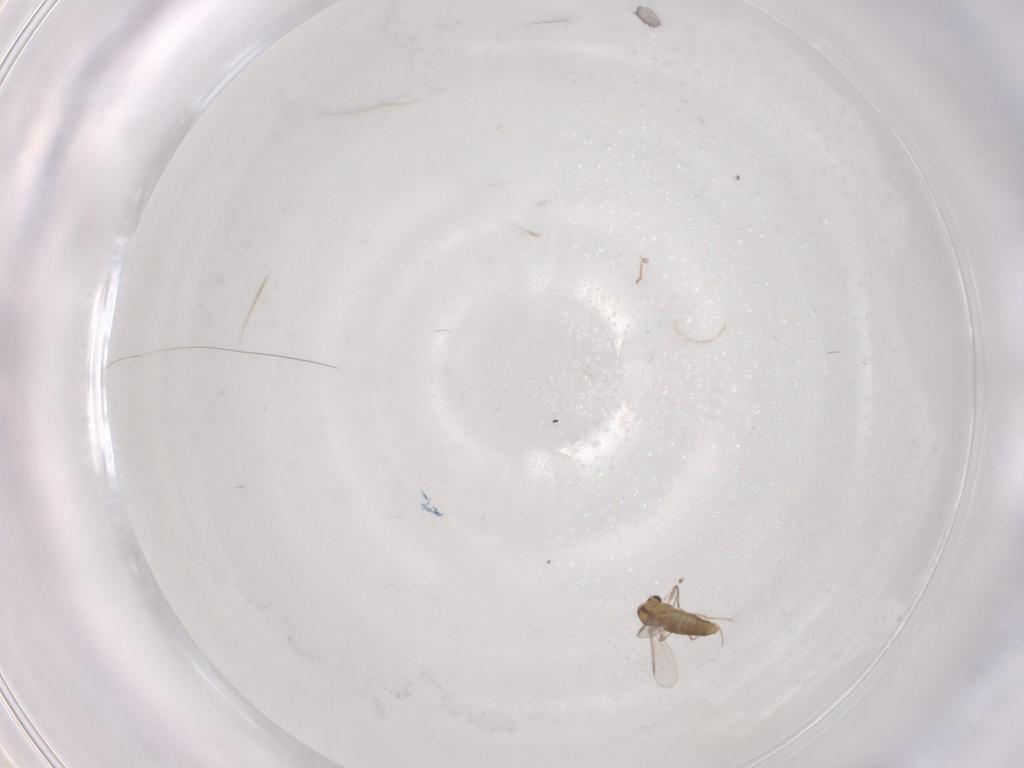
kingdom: Animalia
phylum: Arthropoda
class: Insecta
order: Diptera
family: Chironomidae
